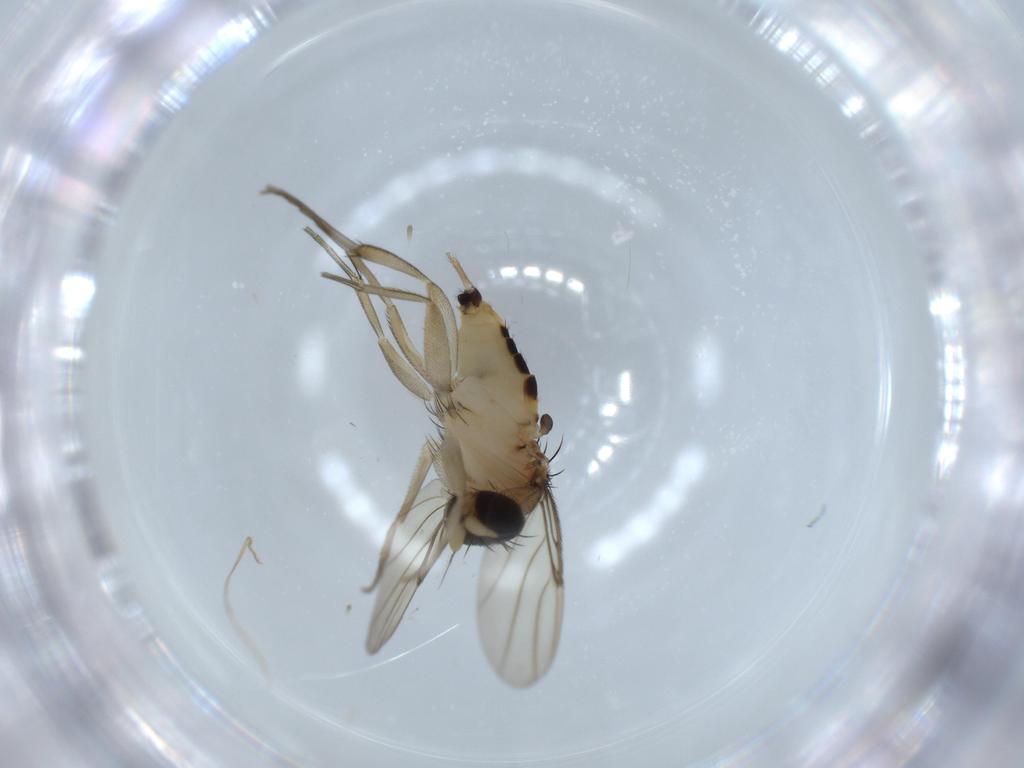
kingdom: Animalia
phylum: Arthropoda
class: Insecta
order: Diptera
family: Phoridae
